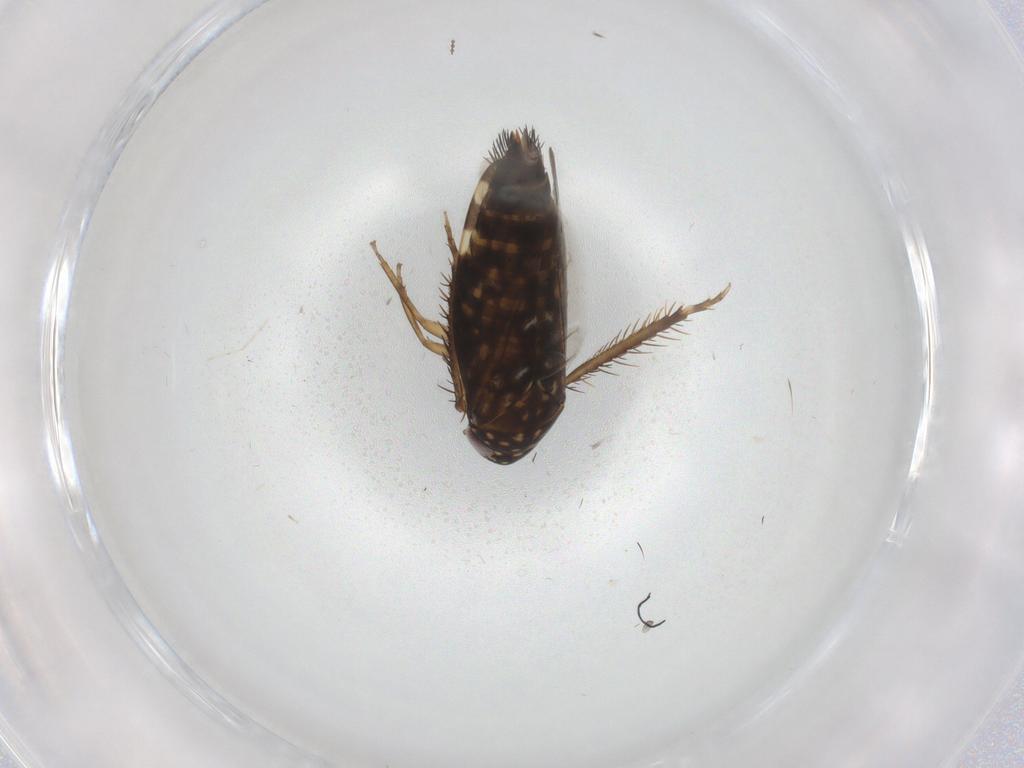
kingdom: Animalia
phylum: Arthropoda
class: Insecta
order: Hemiptera
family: Cicadellidae
